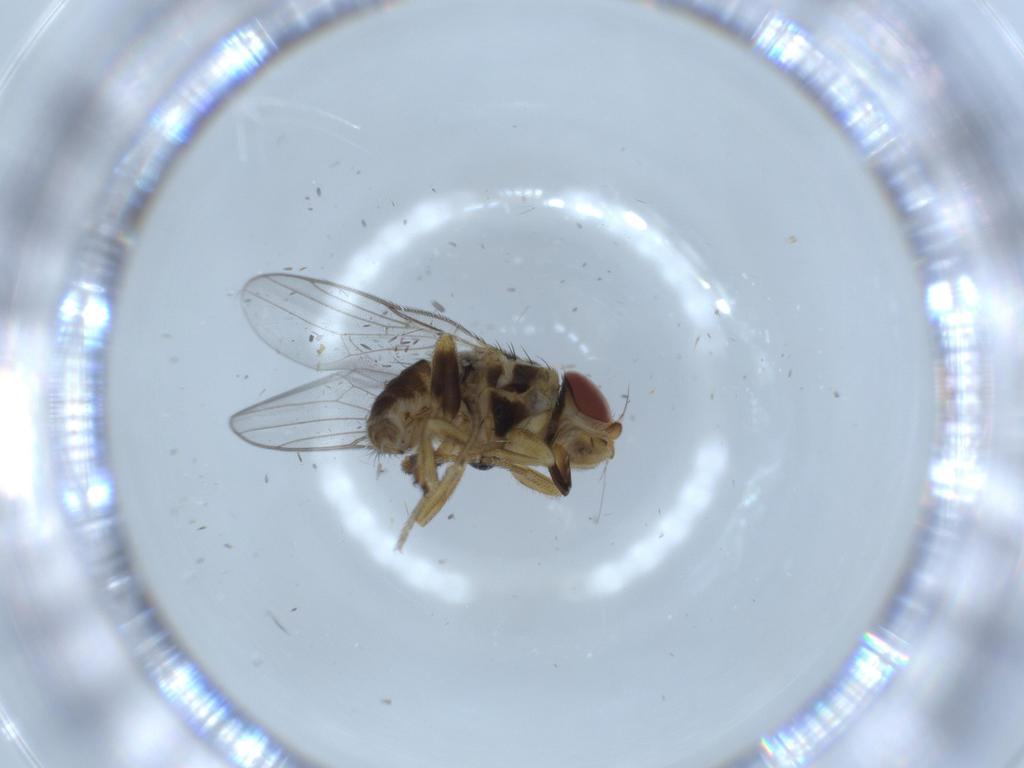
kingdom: Animalia
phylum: Arthropoda
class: Insecta
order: Diptera
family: Chloropidae
